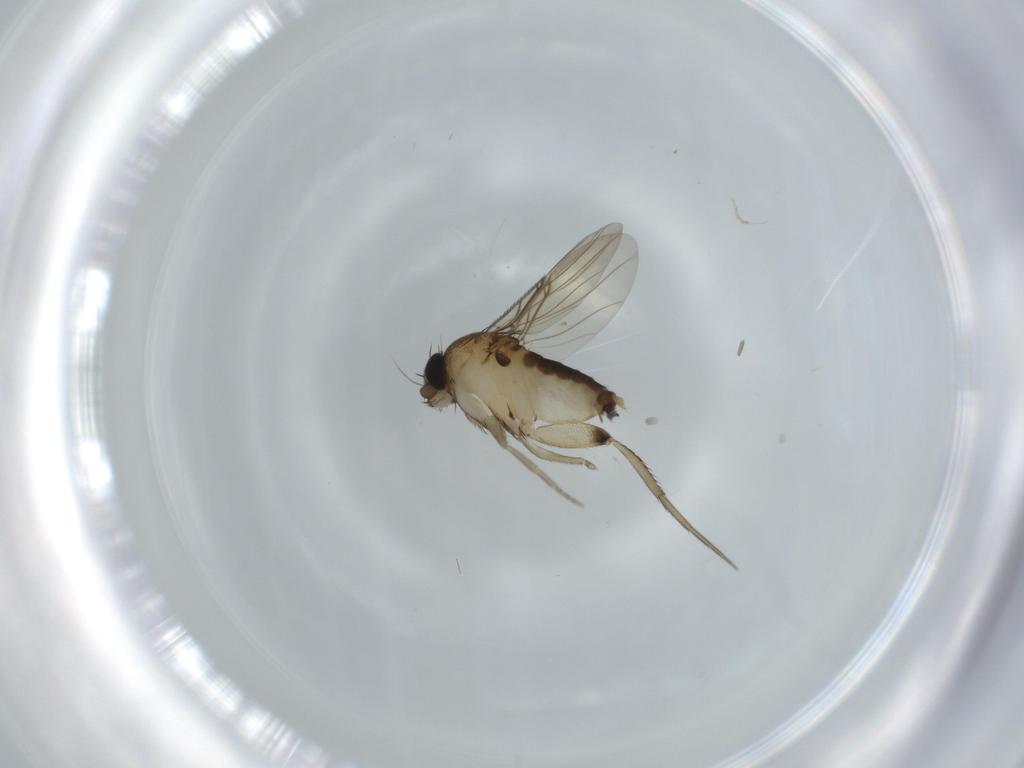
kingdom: Animalia
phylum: Arthropoda
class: Insecta
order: Diptera
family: Phoridae
